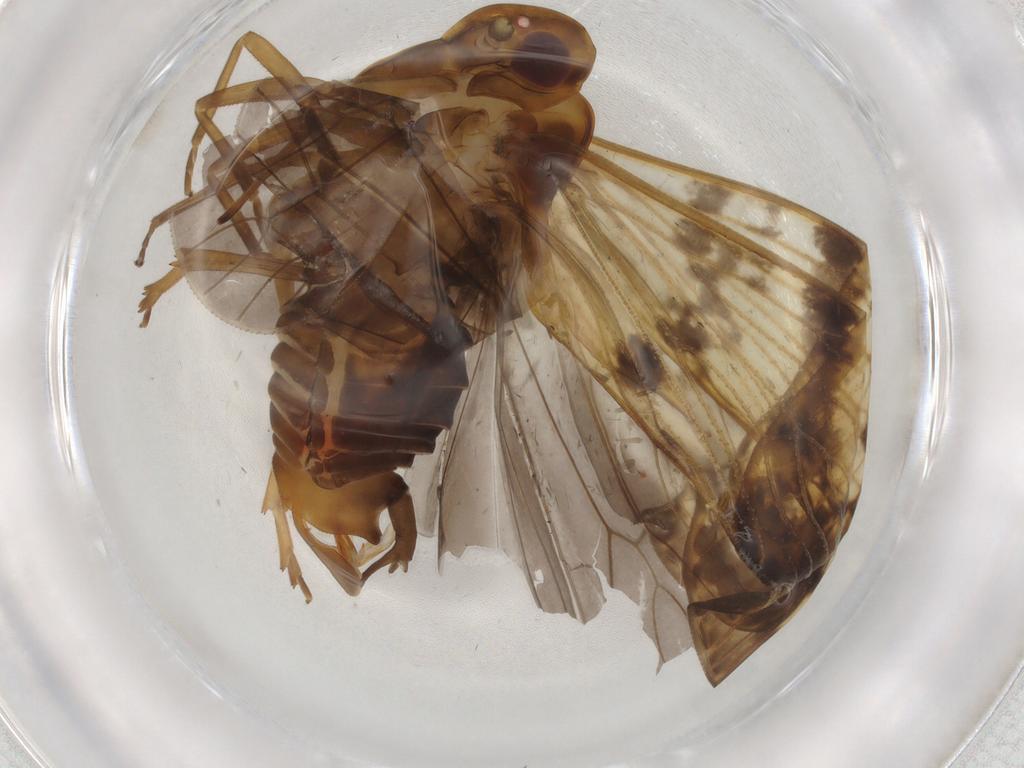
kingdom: Animalia
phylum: Arthropoda
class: Insecta
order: Hemiptera
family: Cixiidae
